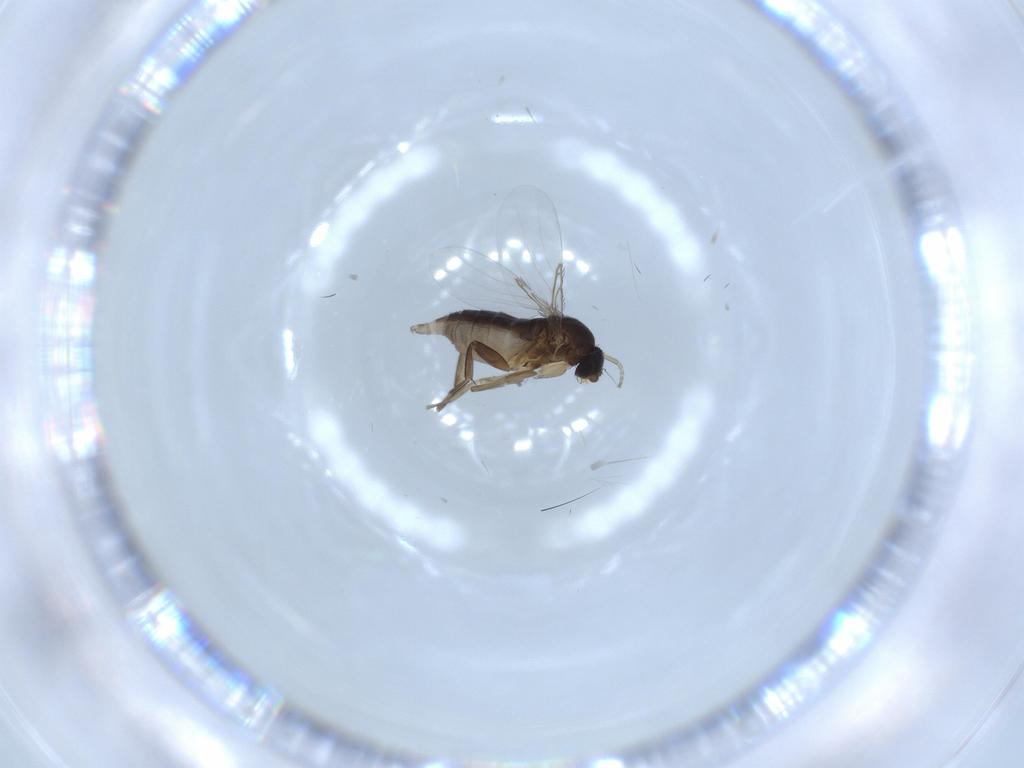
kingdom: Animalia
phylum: Arthropoda
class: Insecta
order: Diptera
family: Phoridae
